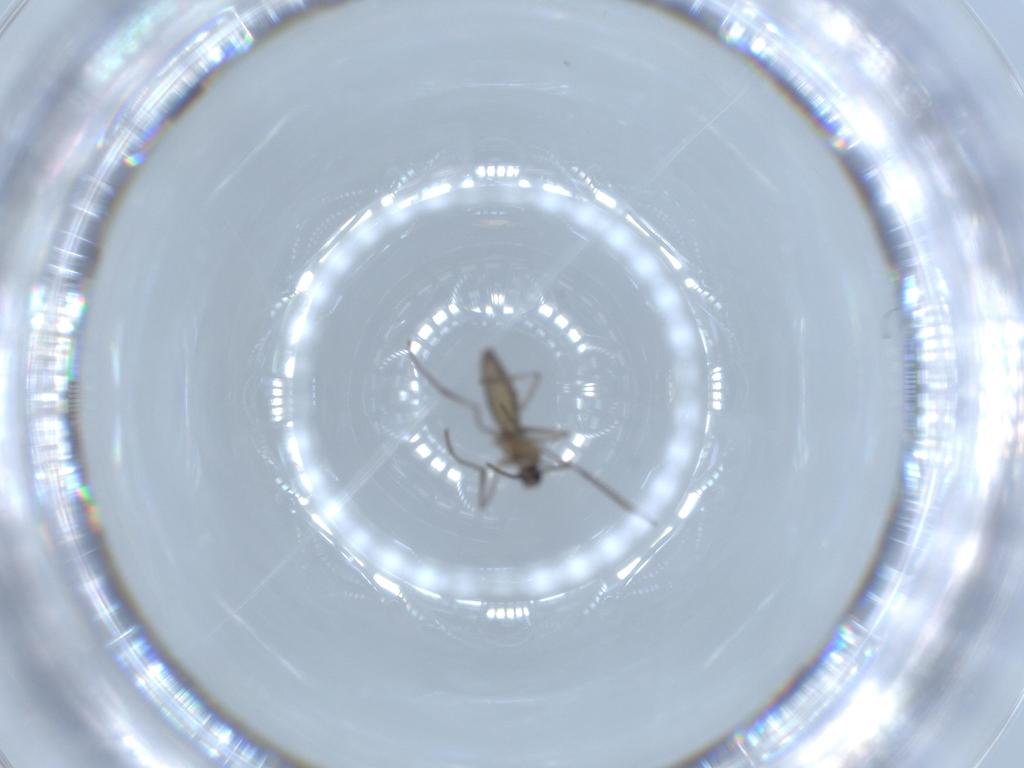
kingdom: Animalia
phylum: Arthropoda
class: Insecta
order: Diptera
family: Cecidomyiidae
